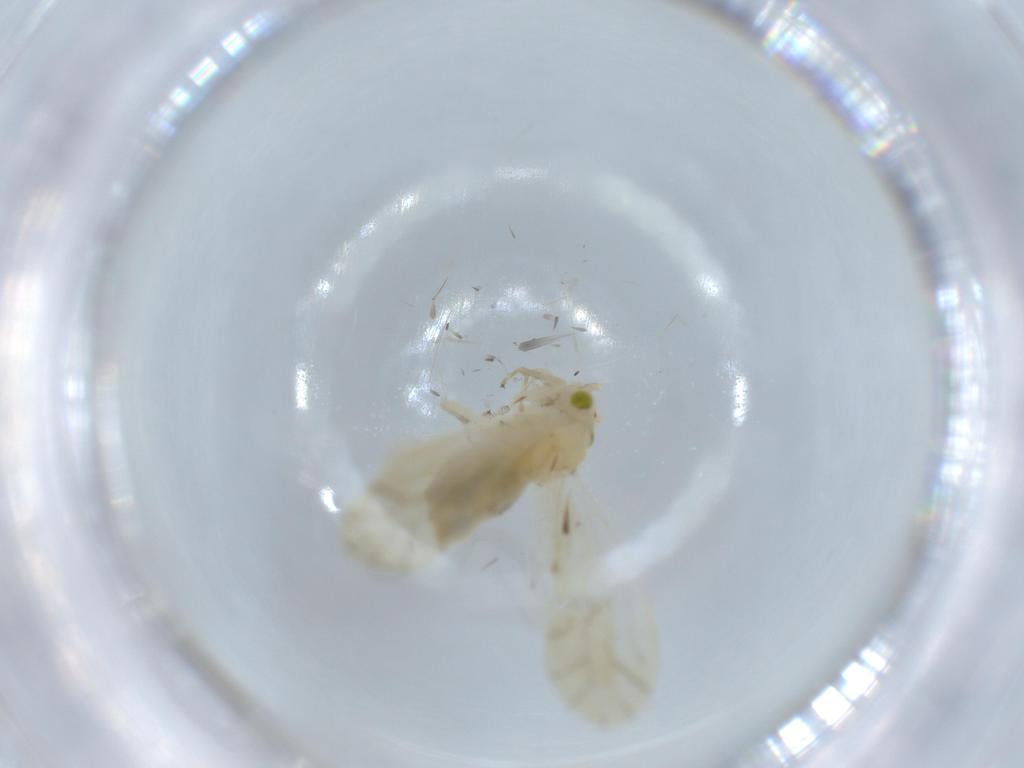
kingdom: Animalia
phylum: Arthropoda
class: Insecta
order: Psocodea
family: Caeciliusidae
